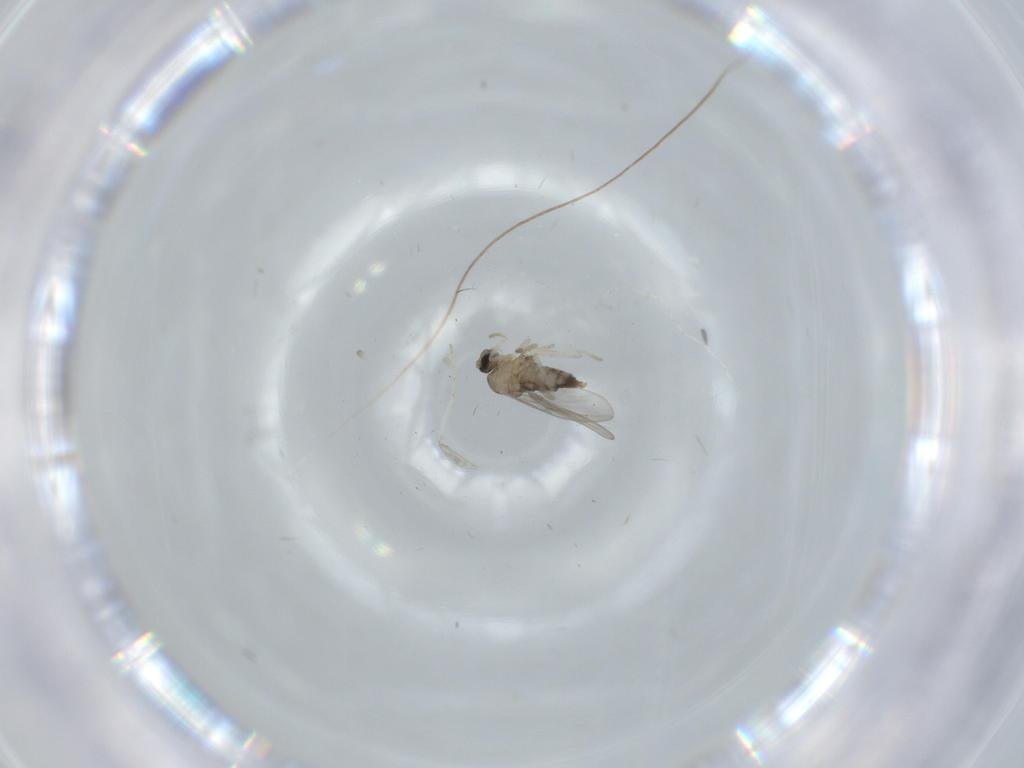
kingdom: Animalia
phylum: Arthropoda
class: Insecta
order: Diptera
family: Cecidomyiidae
